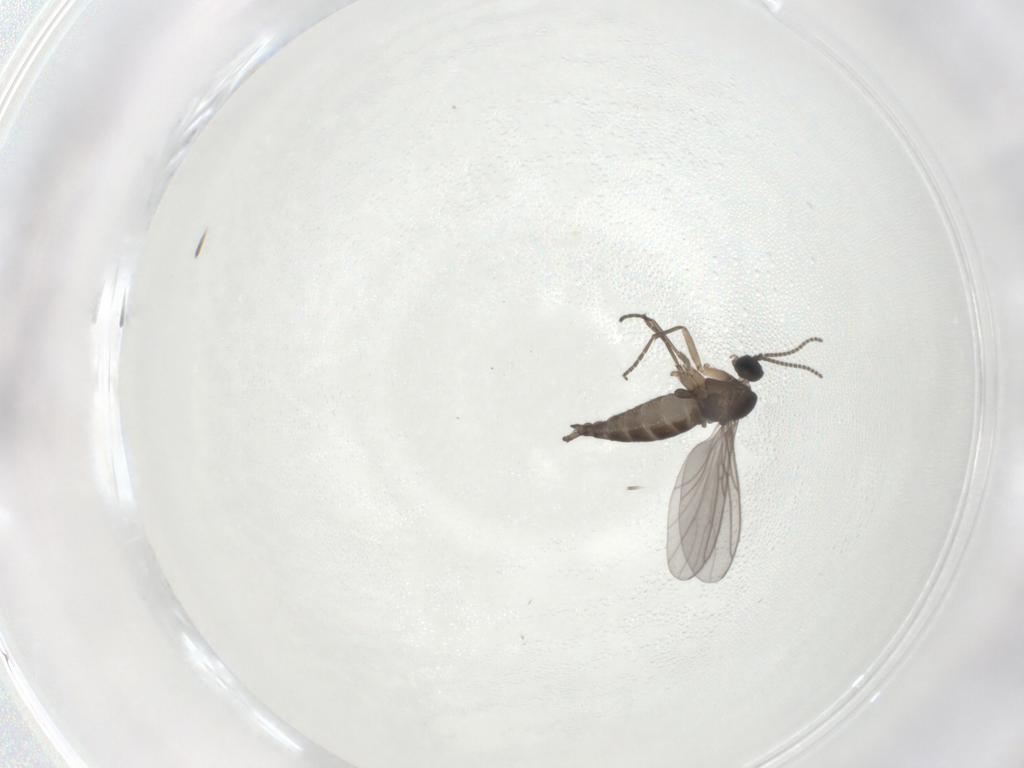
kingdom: Animalia
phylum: Arthropoda
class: Insecta
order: Diptera
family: Sciaridae
